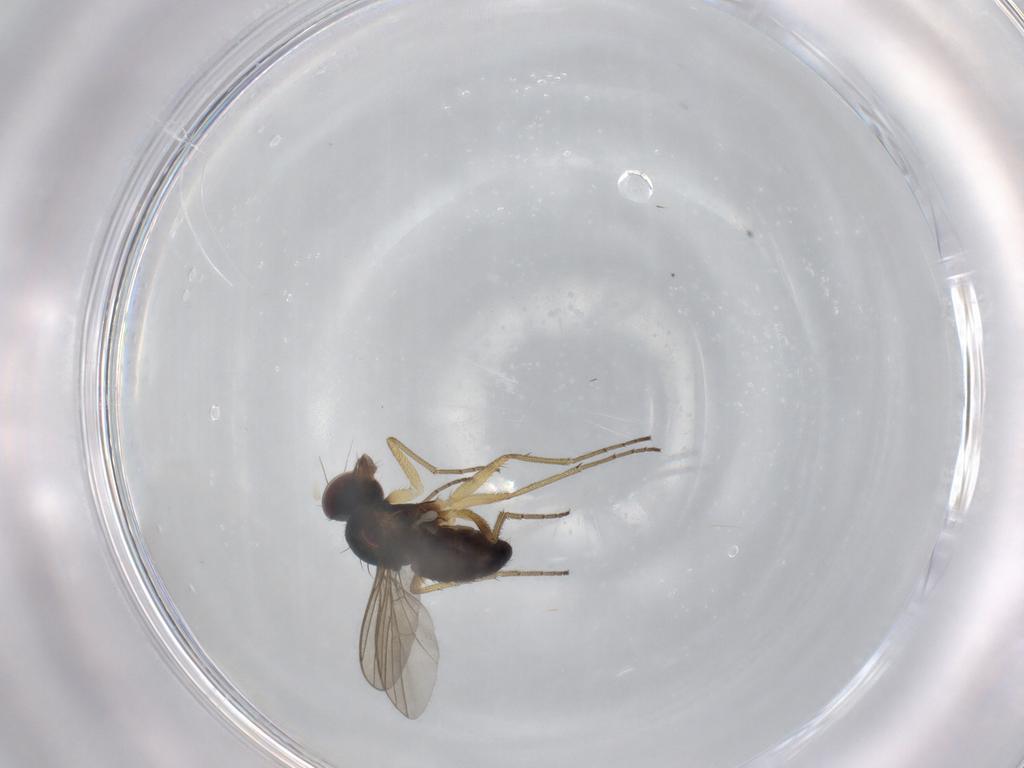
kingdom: Animalia
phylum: Arthropoda
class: Insecta
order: Diptera
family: Dolichopodidae
